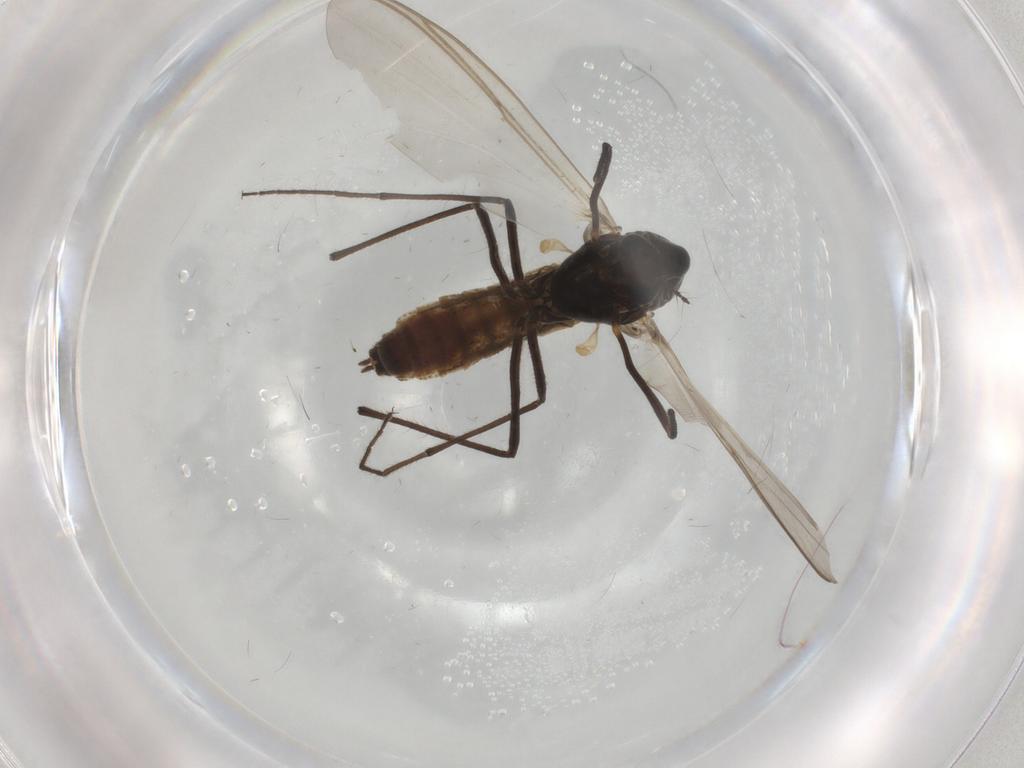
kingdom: Animalia
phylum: Arthropoda
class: Insecta
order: Diptera
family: Chironomidae
